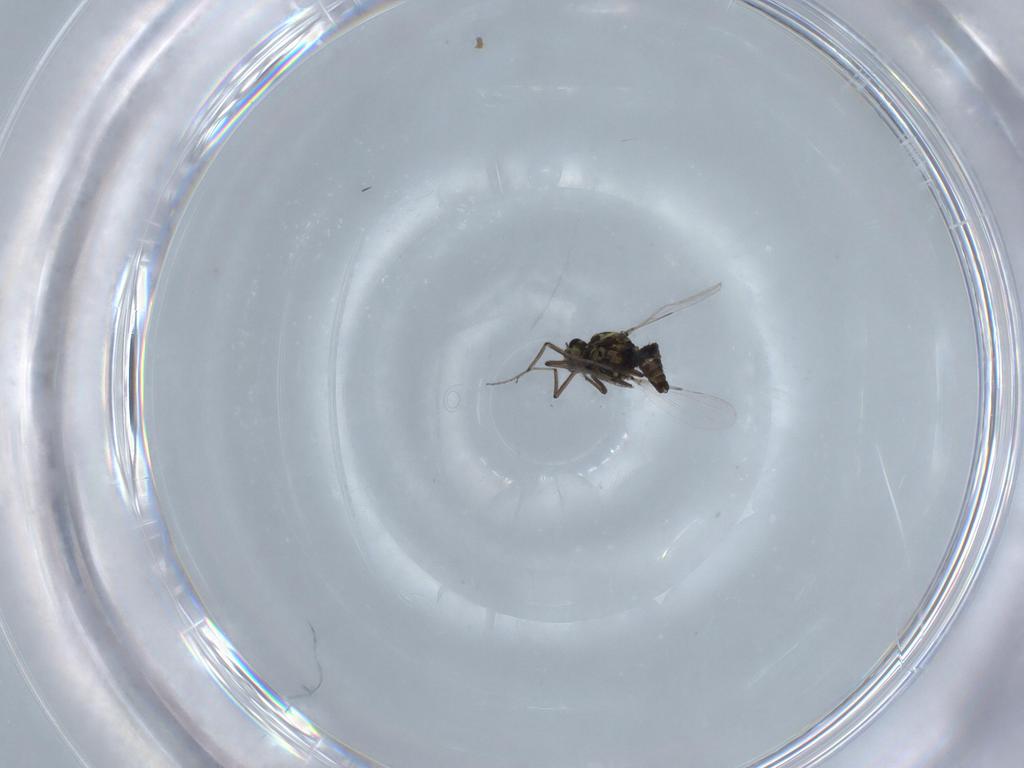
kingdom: Animalia
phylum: Arthropoda
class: Insecta
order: Diptera
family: Ceratopogonidae
